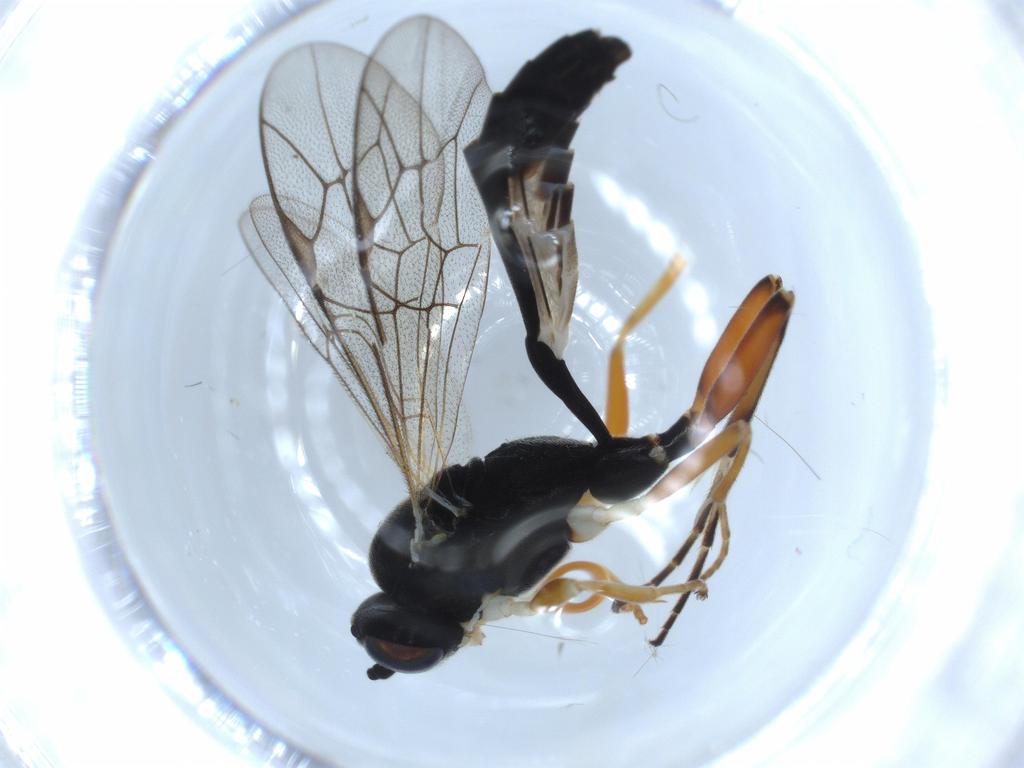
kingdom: Animalia
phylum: Arthropoda
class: Insecta
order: Hymenoptera
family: Ichneumonidae
